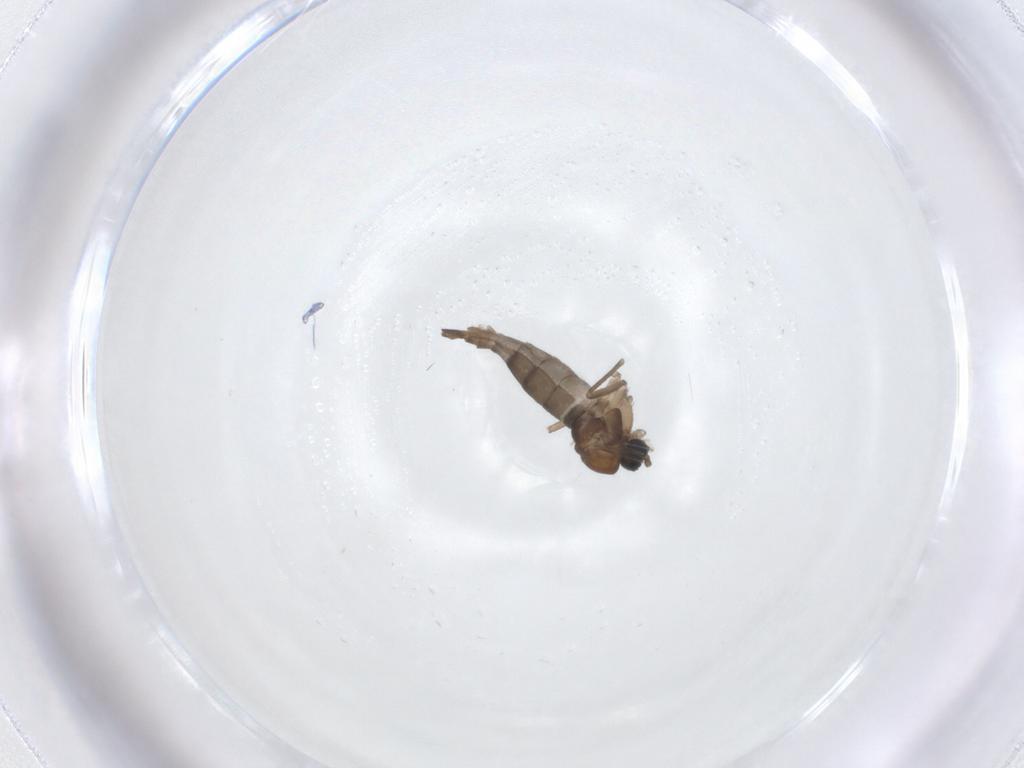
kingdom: Animalia
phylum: Arthropoda
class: Insecta
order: Diptera
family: Sciaridae
